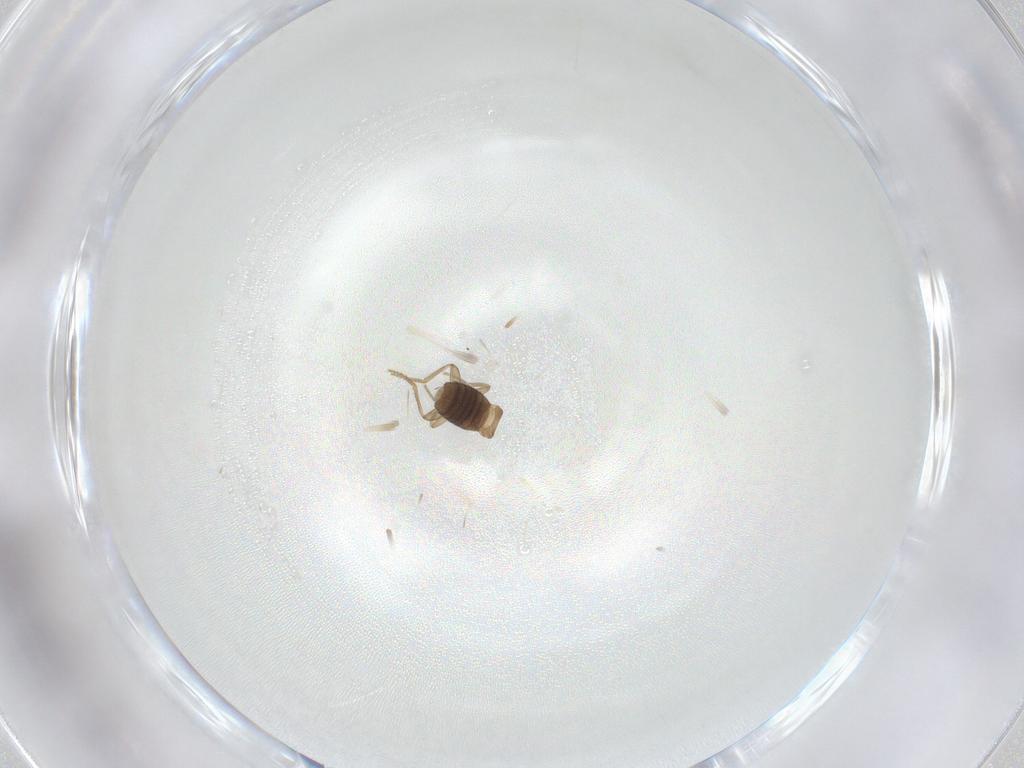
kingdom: Animalia
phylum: Arthropoda
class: Insecta
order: Diptera
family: Phoridae
